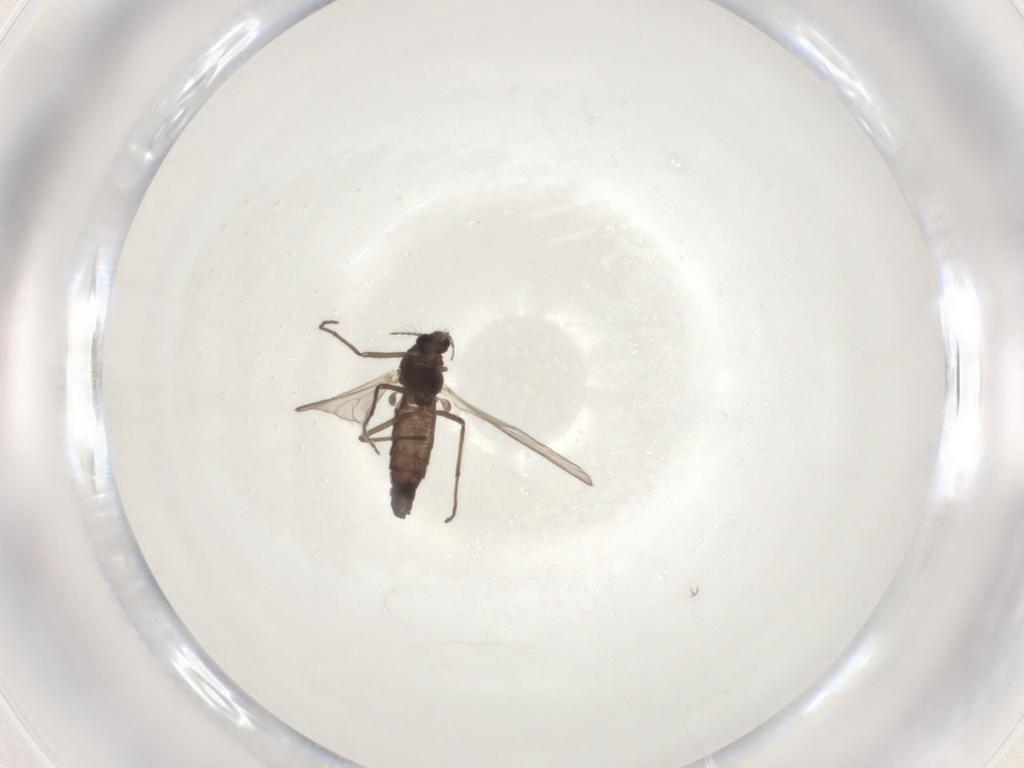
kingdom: Animalia
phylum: Arthropoda
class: Insecta
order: Diptera
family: Chironomidae
